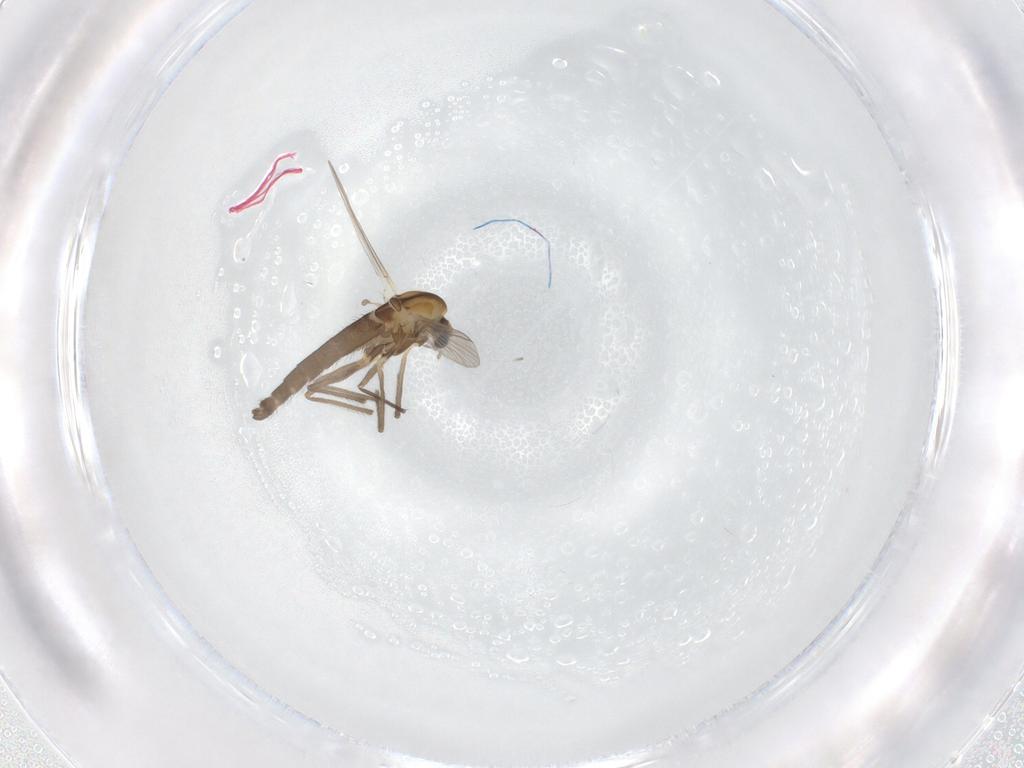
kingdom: Animalia
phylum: Arthropoda
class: Insecta
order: Diptera
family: Chironomidae
